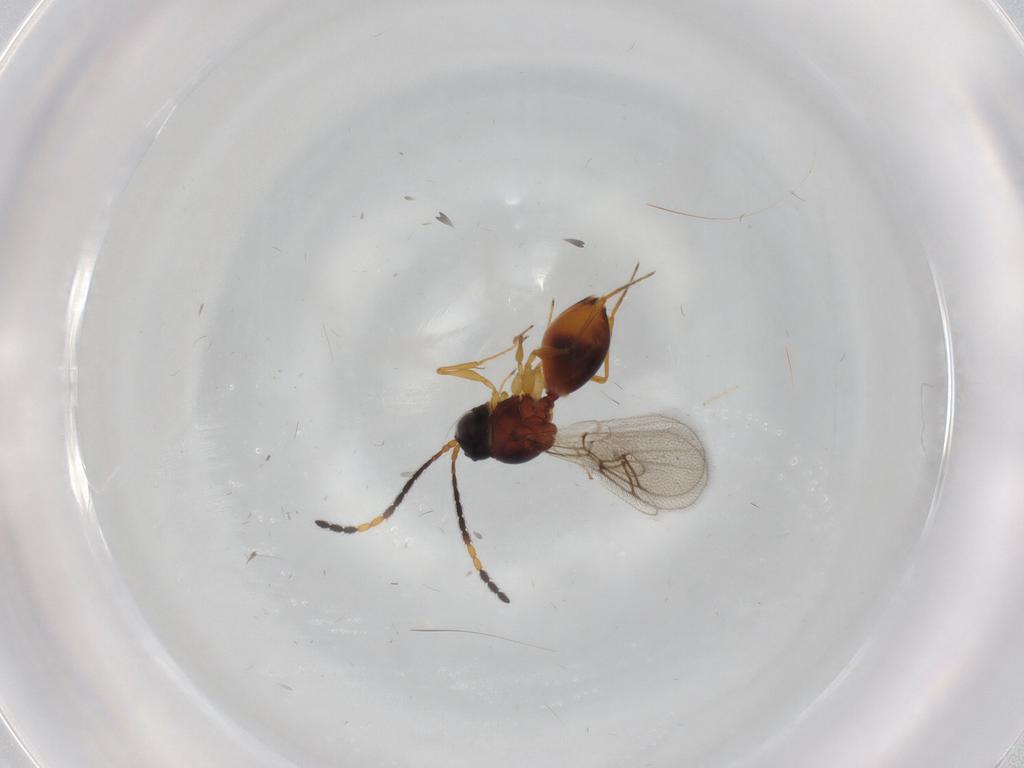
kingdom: Animalia
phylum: Arthropoda
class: Insecta
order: Hymenoptera
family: Figitidae
